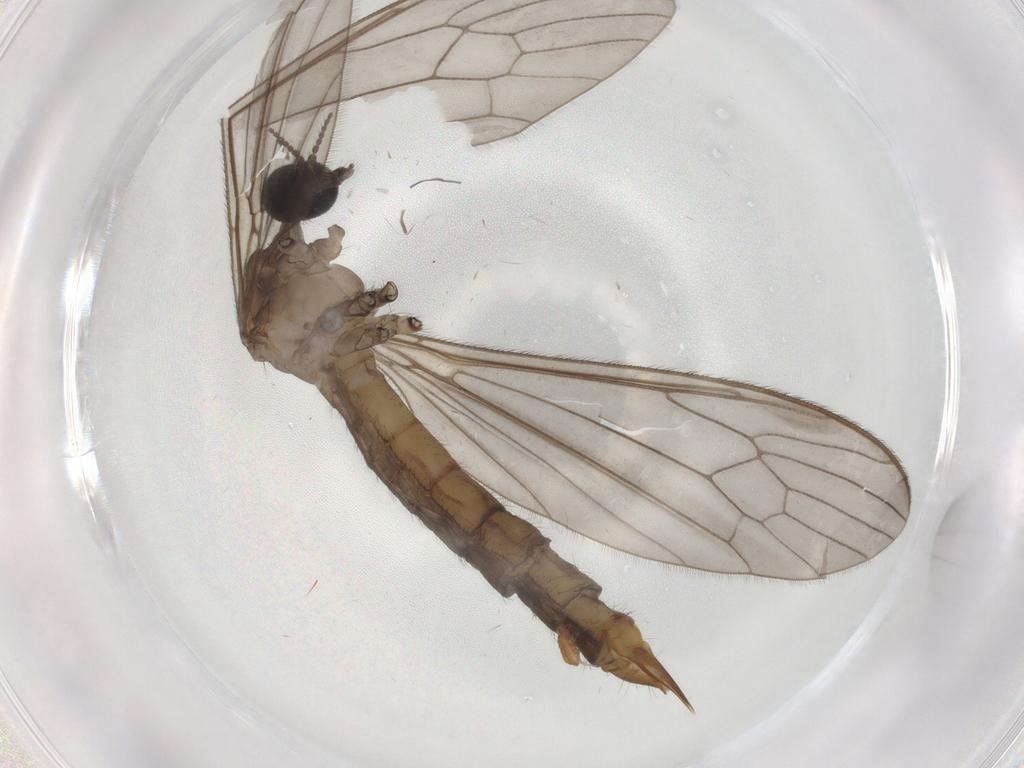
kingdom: Animalia
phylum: Arthropoda
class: Insecta
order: Diptera
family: Limoniidae
